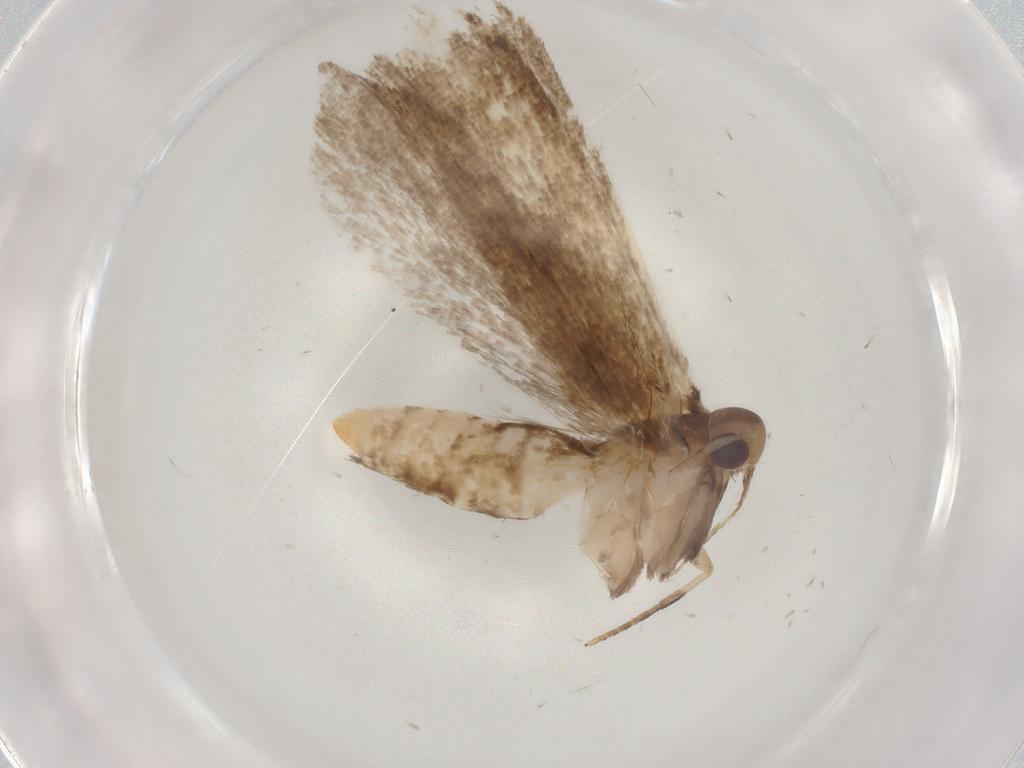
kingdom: Animalia
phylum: Arthropoda
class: Insecta
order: Lepidoptera
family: Gelechiidae
